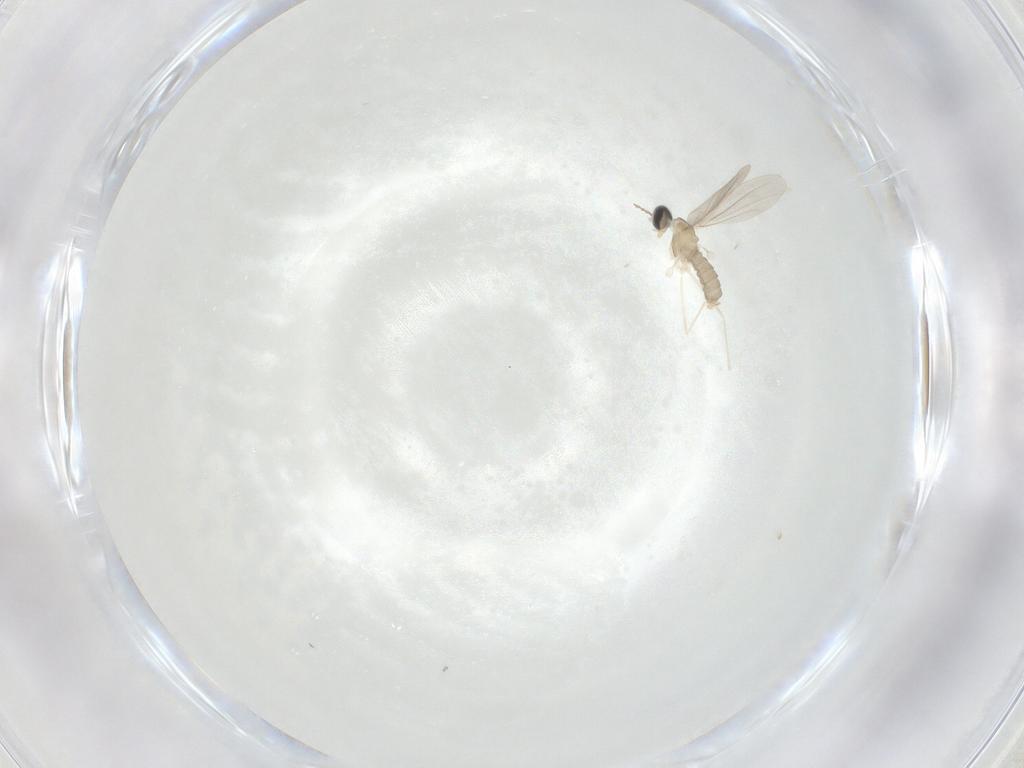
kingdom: Animalia
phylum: Arthropoda
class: Insecta
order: Diptera
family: Cecidomyiidae
